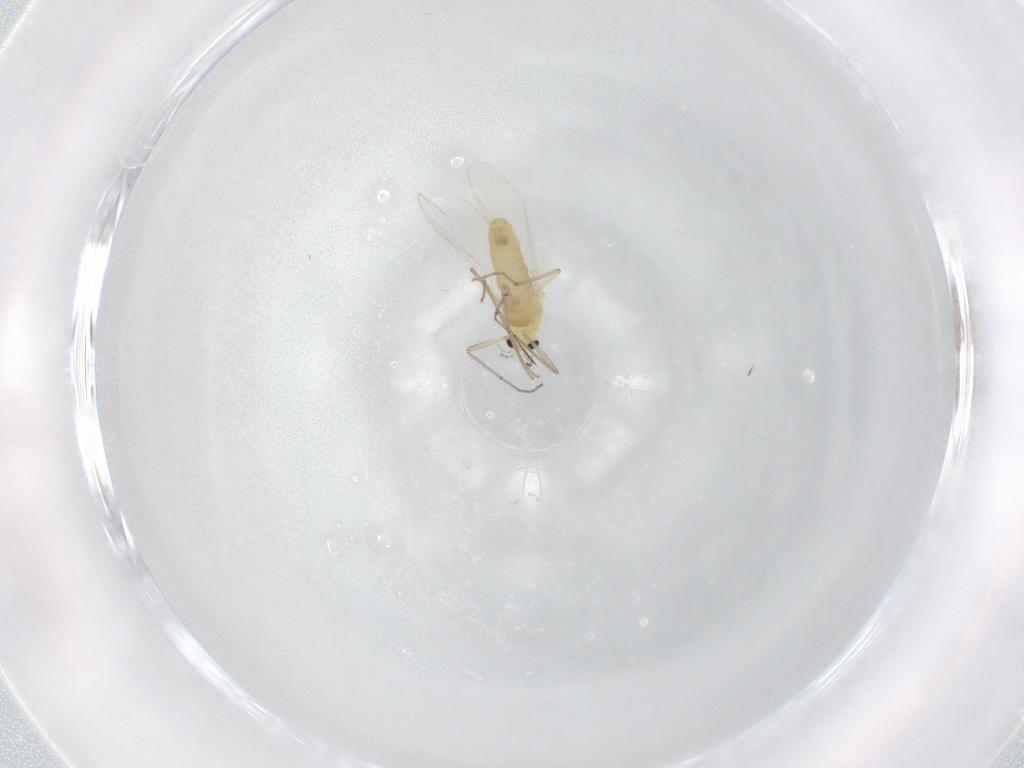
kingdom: Animalia
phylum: Arthropoda
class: Insecta
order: Diptera
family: Chironomidae
